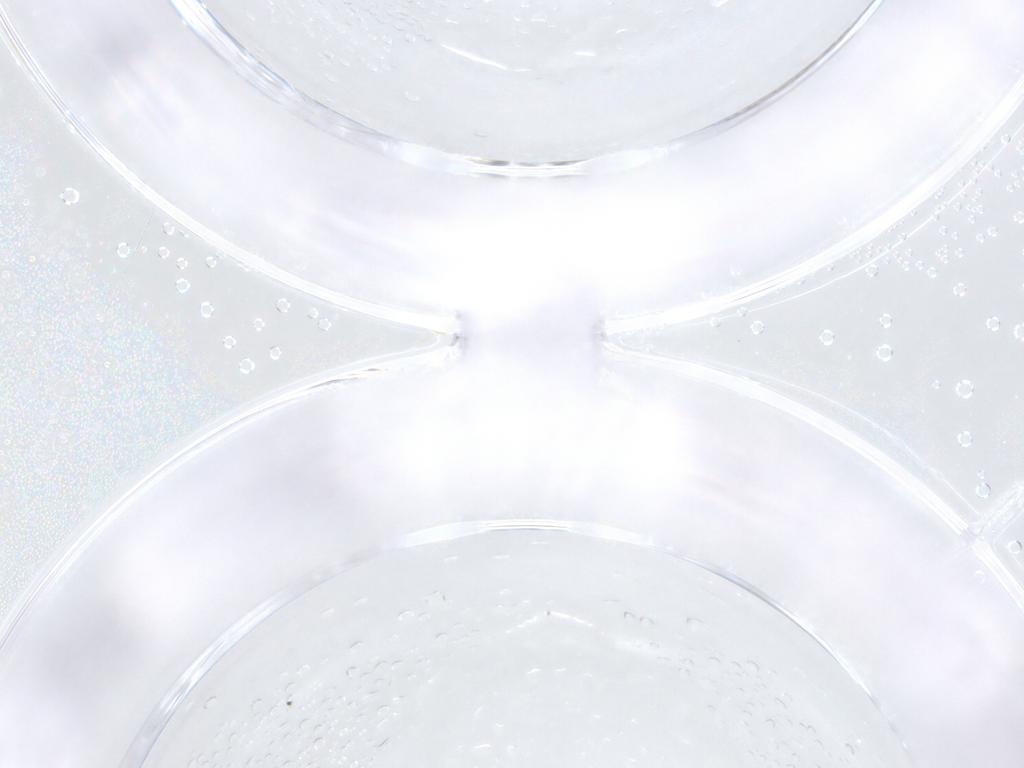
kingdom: Animalia
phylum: Arthropoda
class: Insecta
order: Diptera
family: Psychodidae
